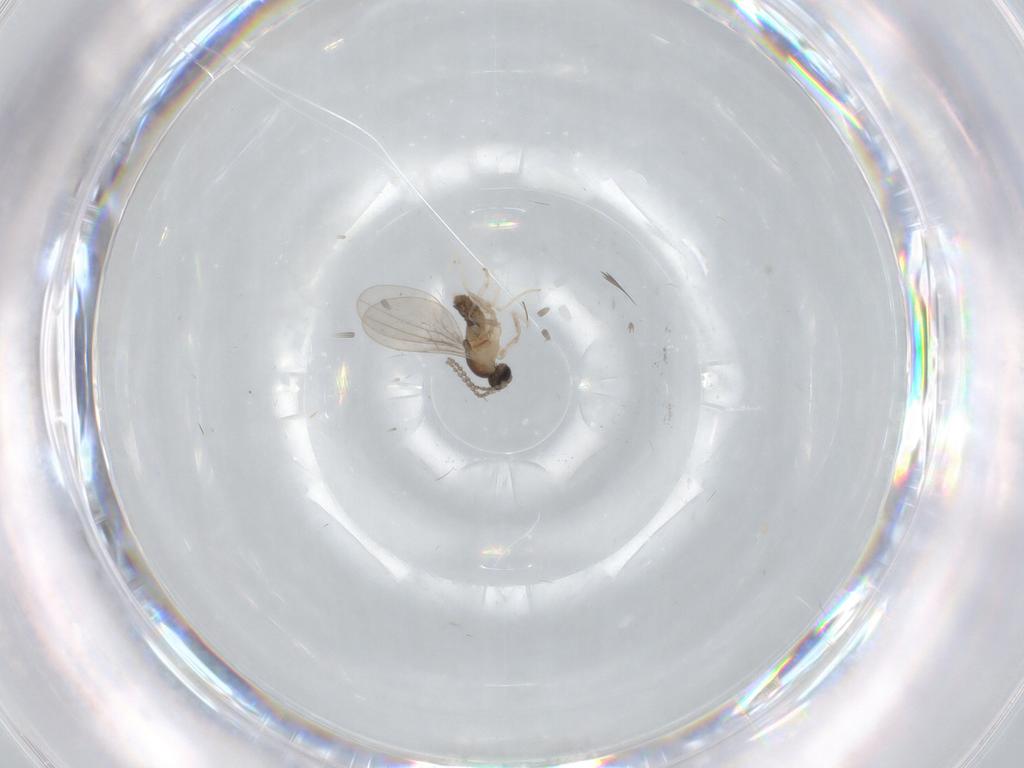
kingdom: Animalia
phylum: Arthropoda
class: Insecta
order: Diptera
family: Cecidomyiidae
